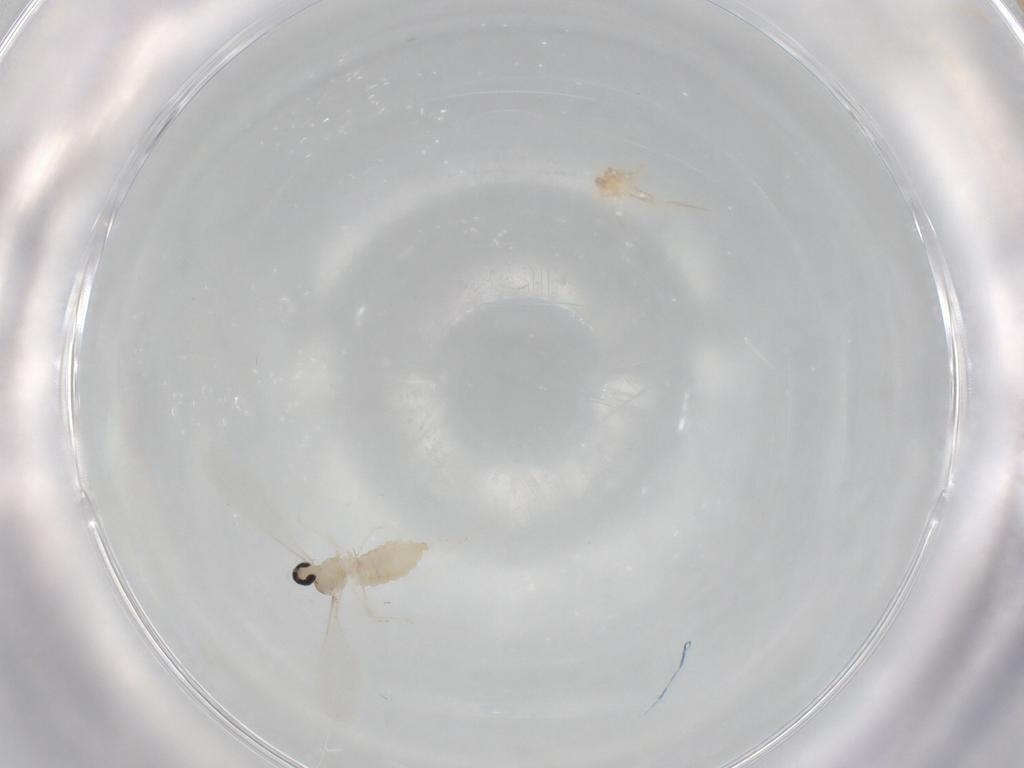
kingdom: Animalia
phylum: Arthropoda
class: Insecta
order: Diptera
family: Cecidomyiidae
